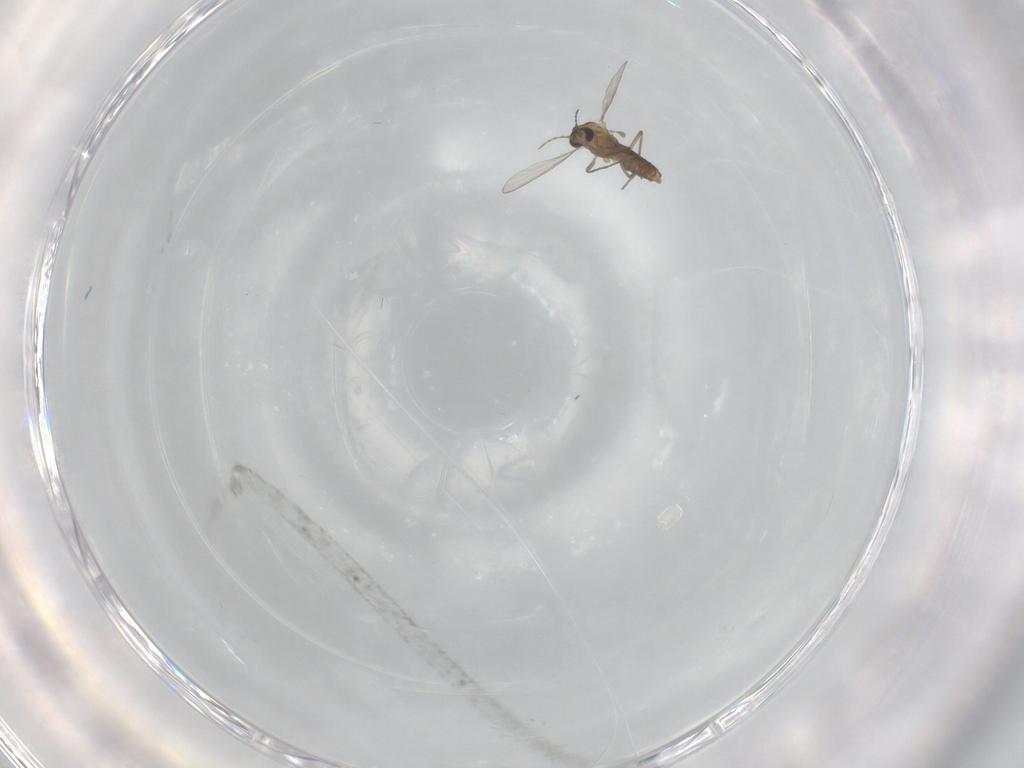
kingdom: Animalia
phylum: Arthropoda
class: Insecta
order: Diptera
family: Chironomidae
